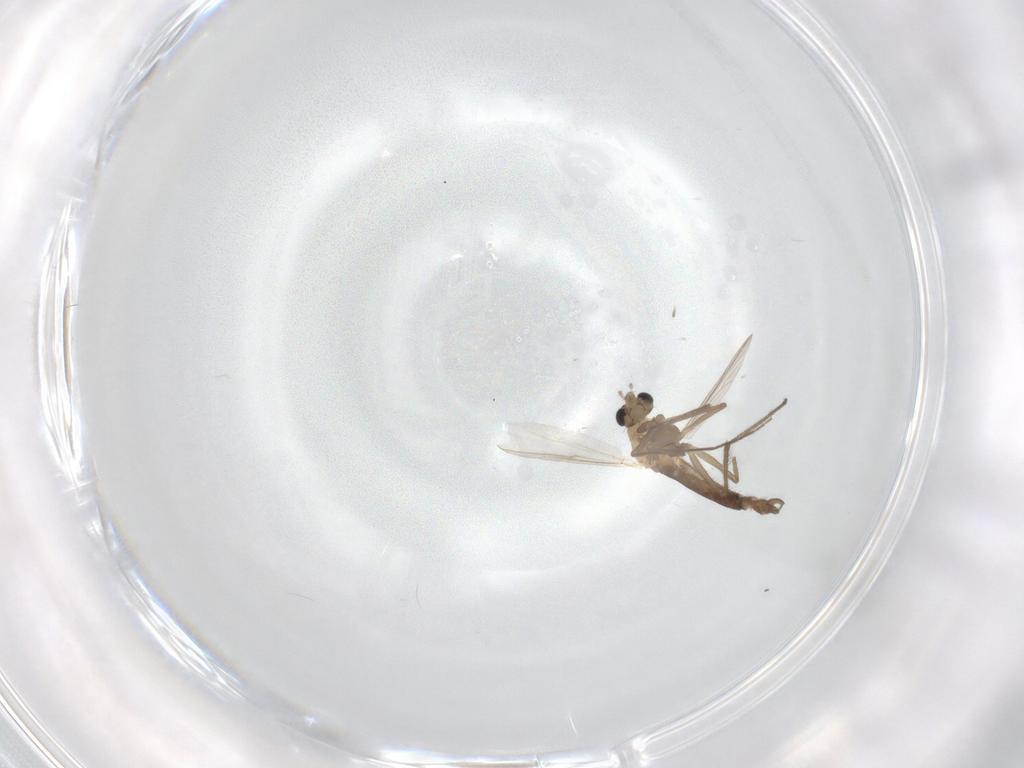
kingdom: Animalia
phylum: Arthropoda
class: Insecta
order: Diptera
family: Chironomidae
